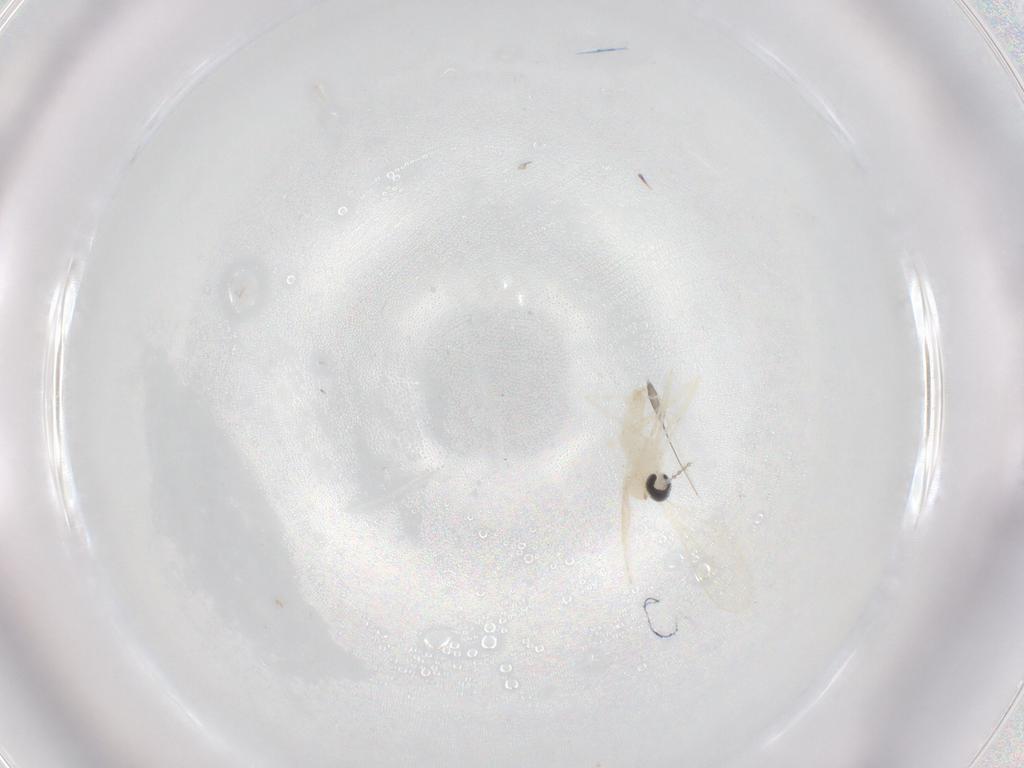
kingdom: Animalia
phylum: Arthropoda
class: Insecta
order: Diptera
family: Cecidomyiidae
